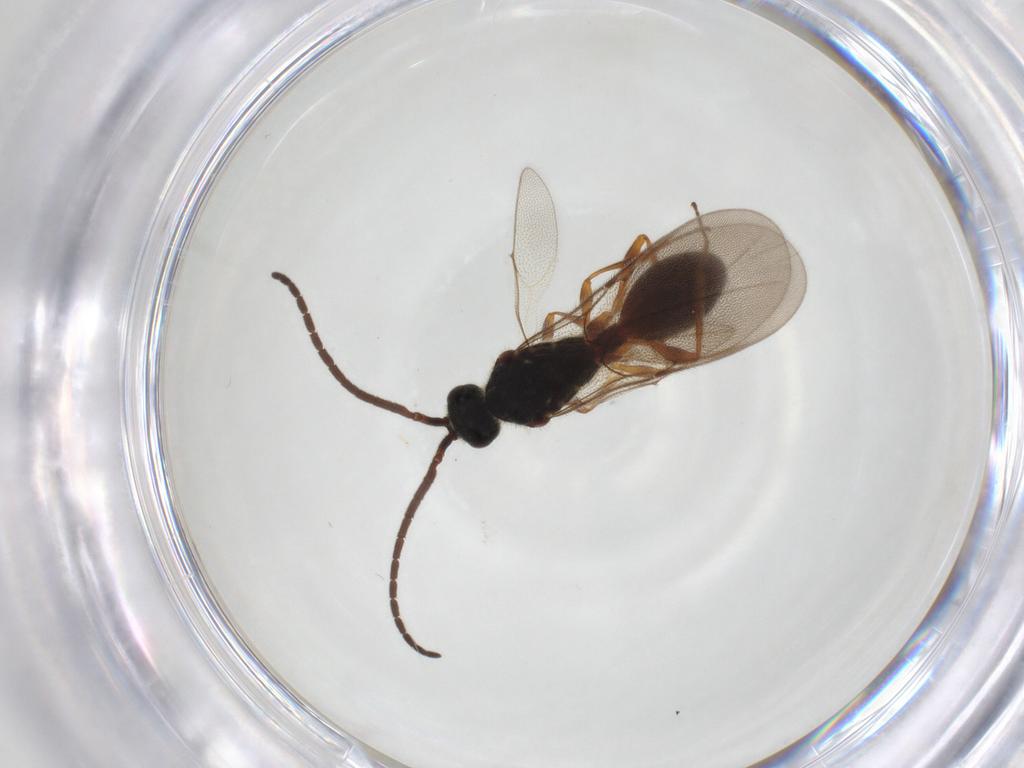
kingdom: Animalia
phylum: Arthropoda
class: Insecta
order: Hymenoptera
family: Diapriidae
